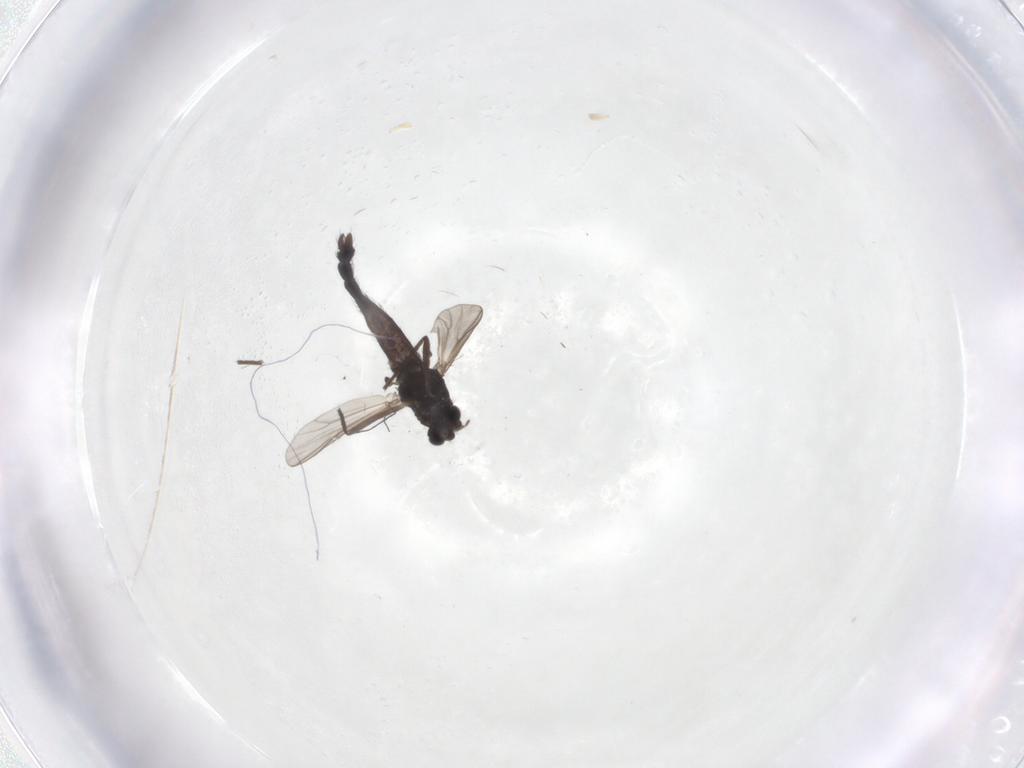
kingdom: Animalia
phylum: Arthropoda
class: Insecta
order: Diptera
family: Chironomidae
